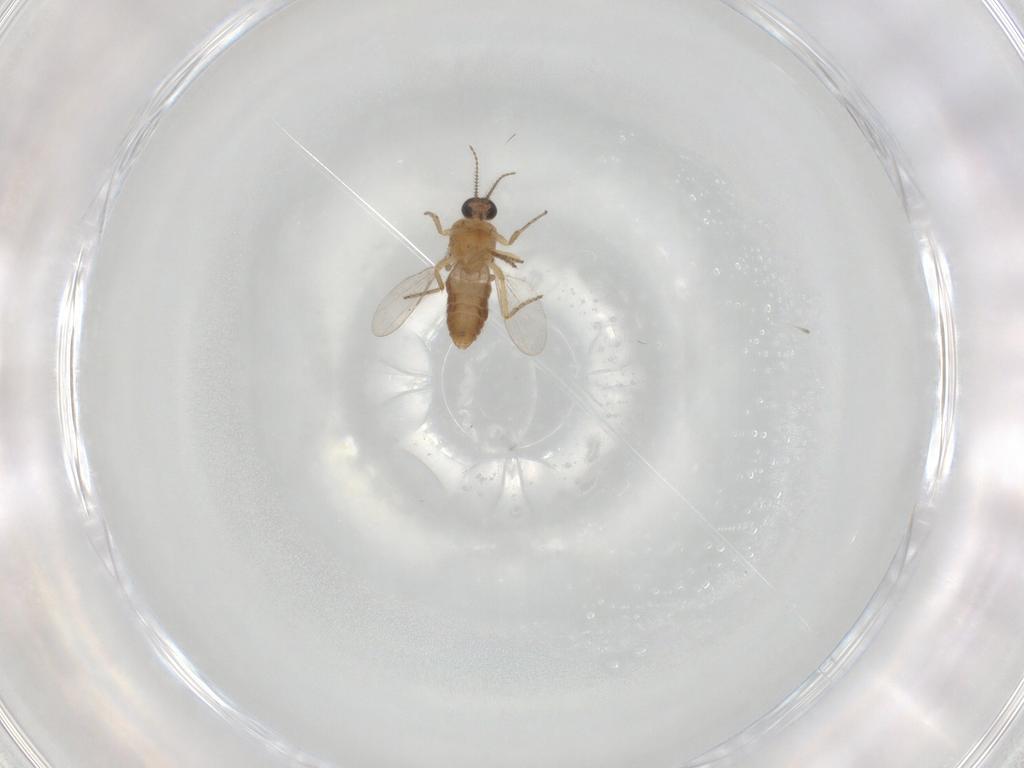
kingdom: Animalia
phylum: Arthropoda
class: Insecta
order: Diptera
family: Ceratopogonidae
